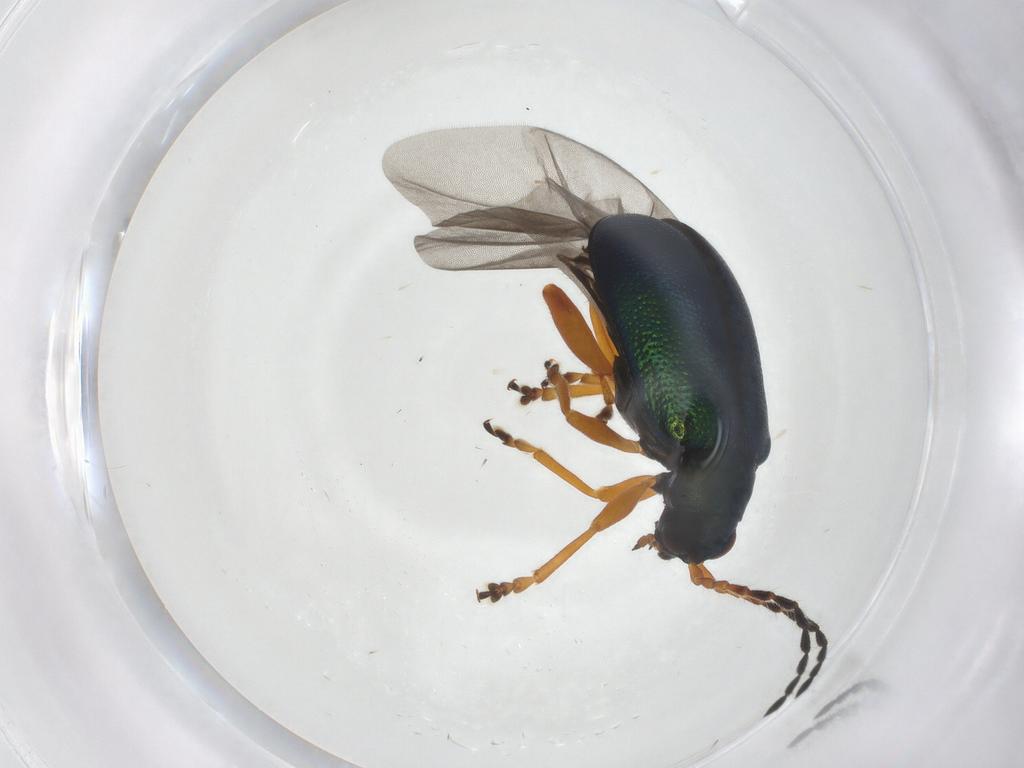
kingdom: Animalia
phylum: Arthropoda
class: Insecta
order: Coleoptera
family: Chrysomelidae
